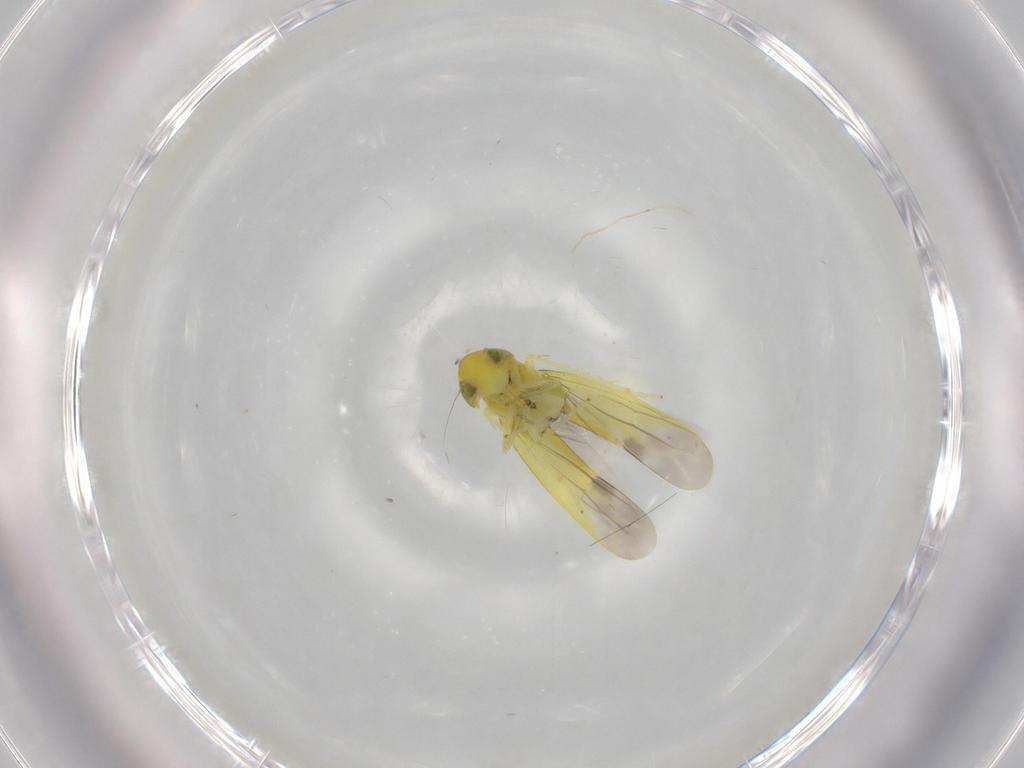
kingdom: Animalia
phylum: Arthropoda
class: Insecta
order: Hemiptera
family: Cicadellidae
